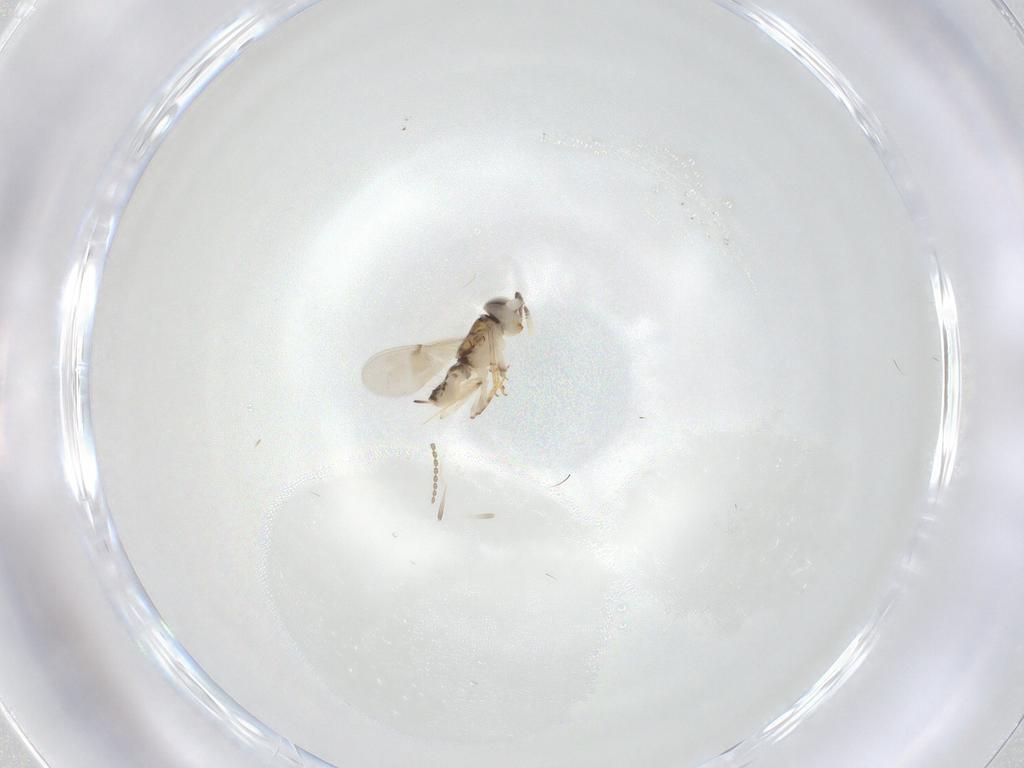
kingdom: Animalia
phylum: Arthropoda
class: Insecta
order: Hymenoptera
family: Encyrtidae
